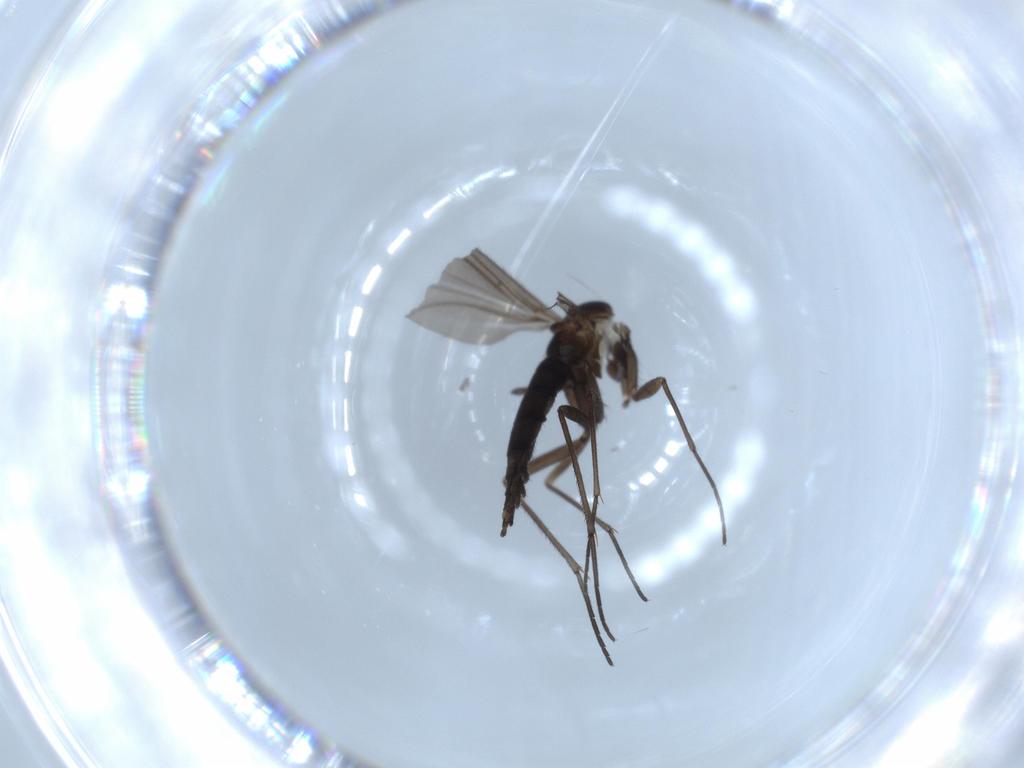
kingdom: Animalia
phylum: Arthropoda
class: Insecta
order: Diptera
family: Sciaridae
